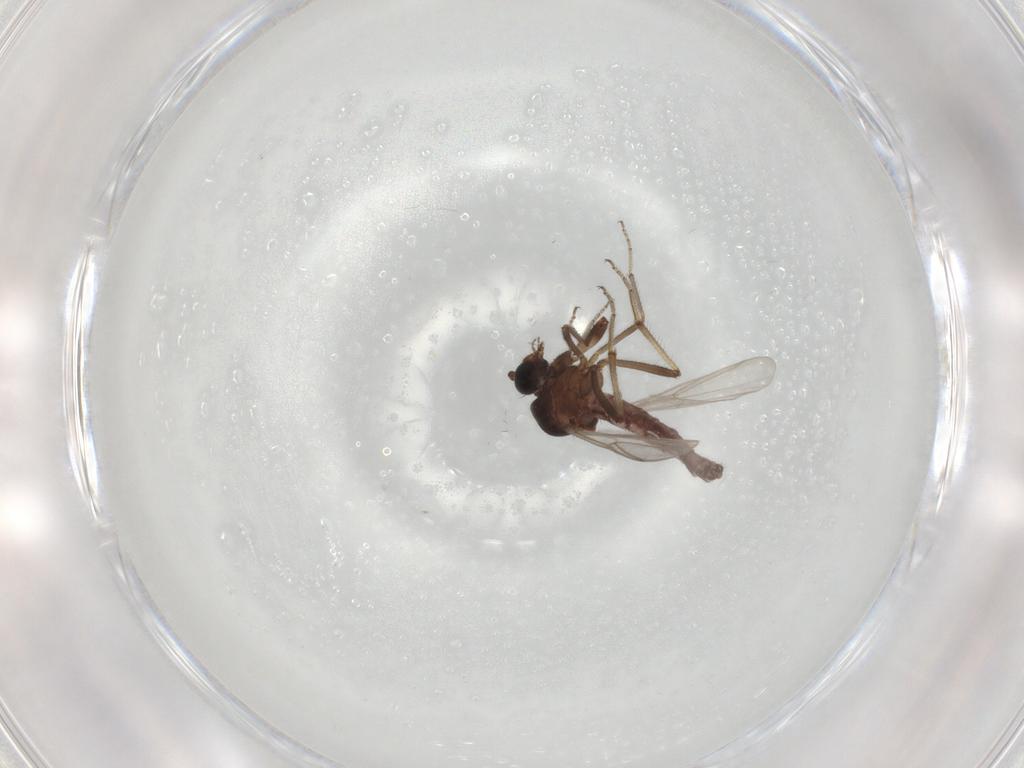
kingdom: Animalia
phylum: Arthropoda
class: Insecta
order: Diptera
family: Ceratopogonidae
